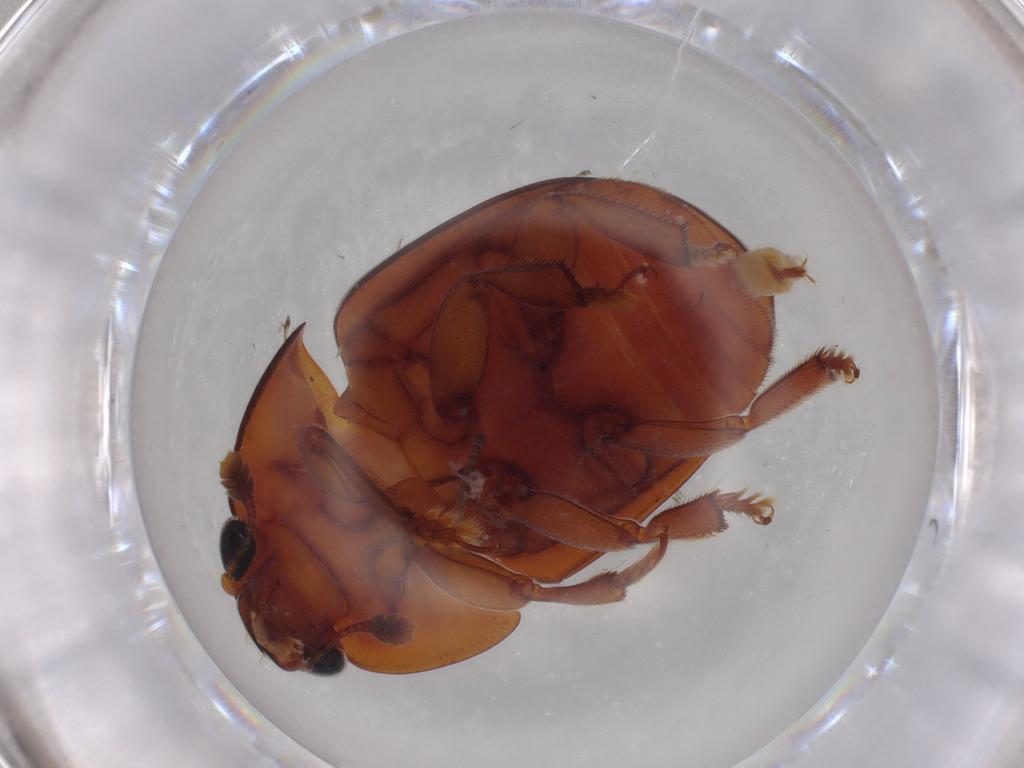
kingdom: Animalia
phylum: Arthropoda
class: Insecta
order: Coleoptera
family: Nitidulidae
